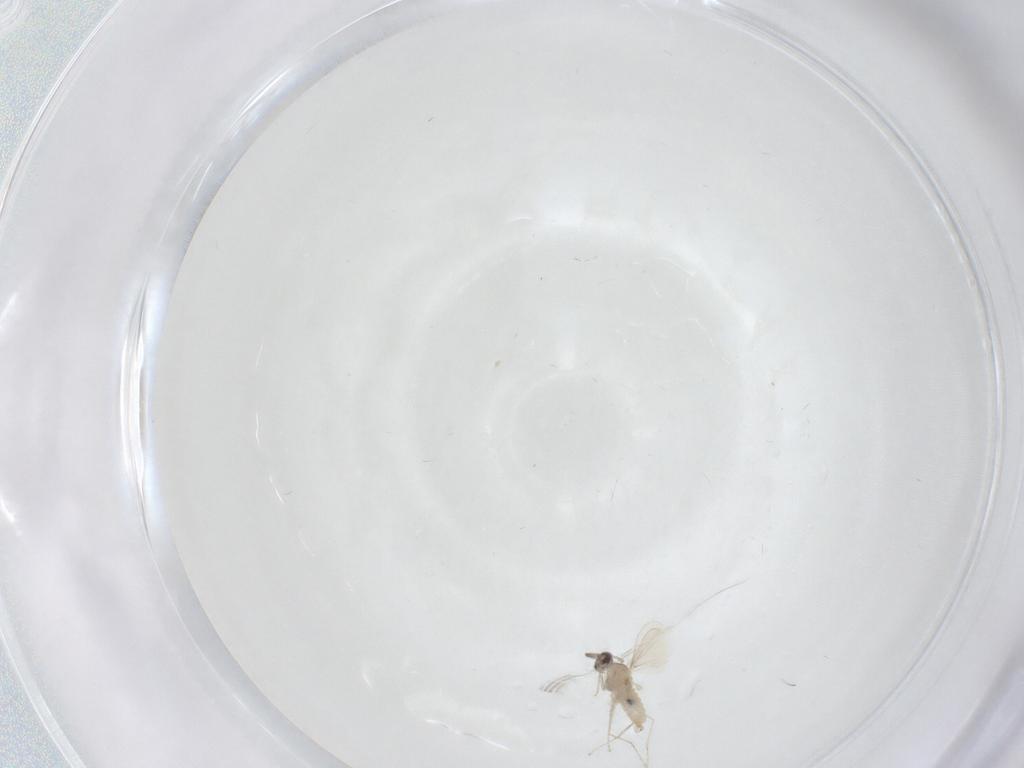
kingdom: Animalia
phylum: Arthropoda
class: Insecta
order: Diptera
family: Cecidomyiidae
